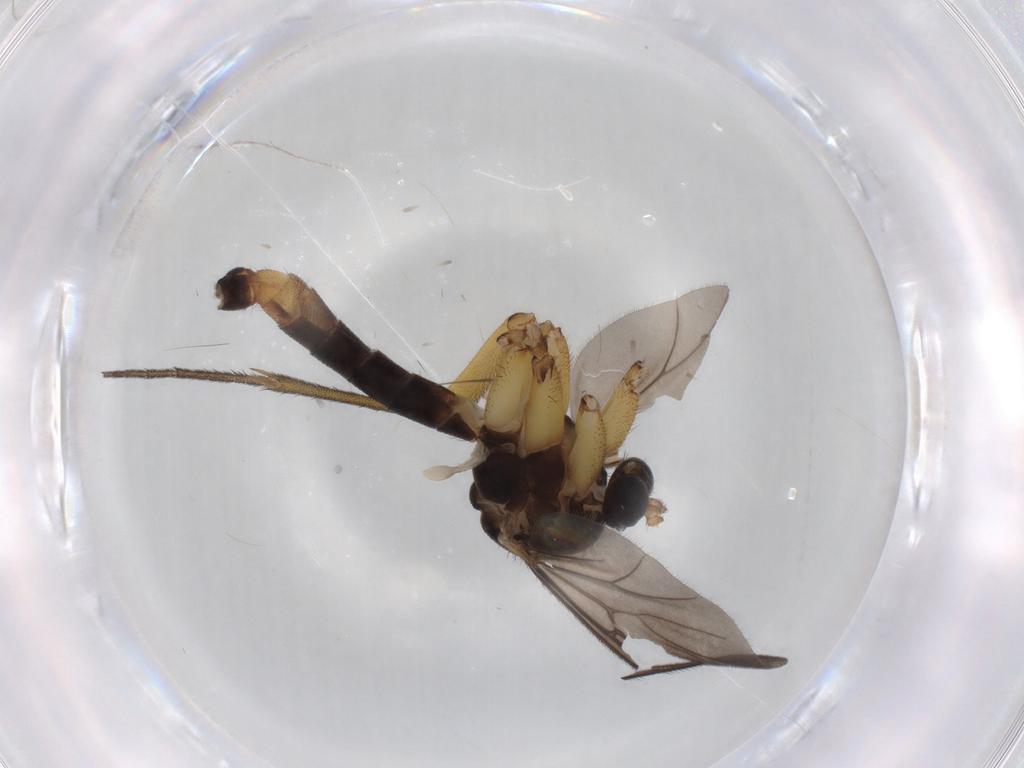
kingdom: Animalia
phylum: Arthropoda
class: Insecta
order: Diptera
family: Mycetophilidae
